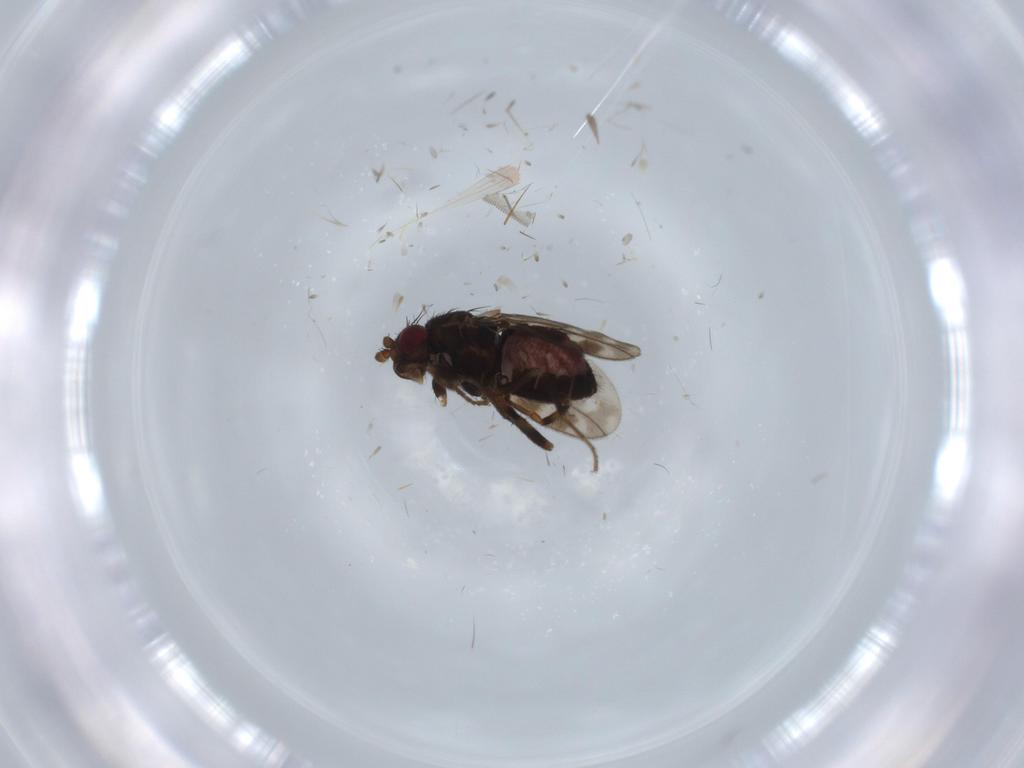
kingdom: Animalia
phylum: Arthropoda
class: Insecta
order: Diptera
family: Sphaeroceridae
